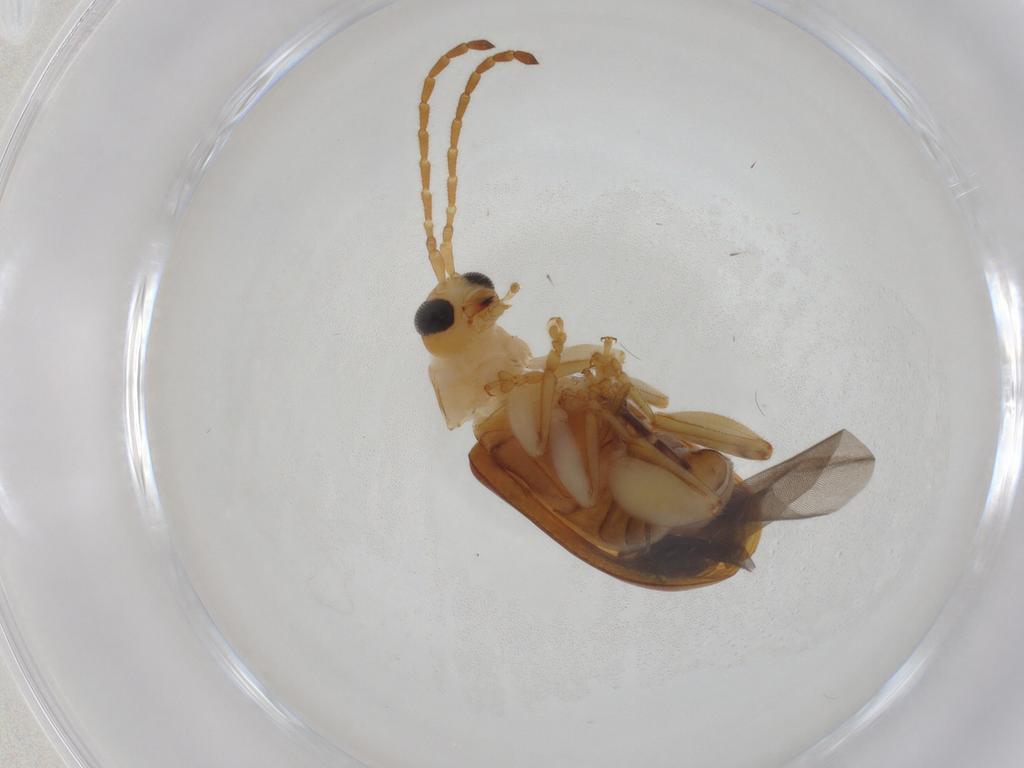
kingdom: Animalia
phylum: Arthropoda
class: Insecta
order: Coleoptera
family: Chrysomelidae
